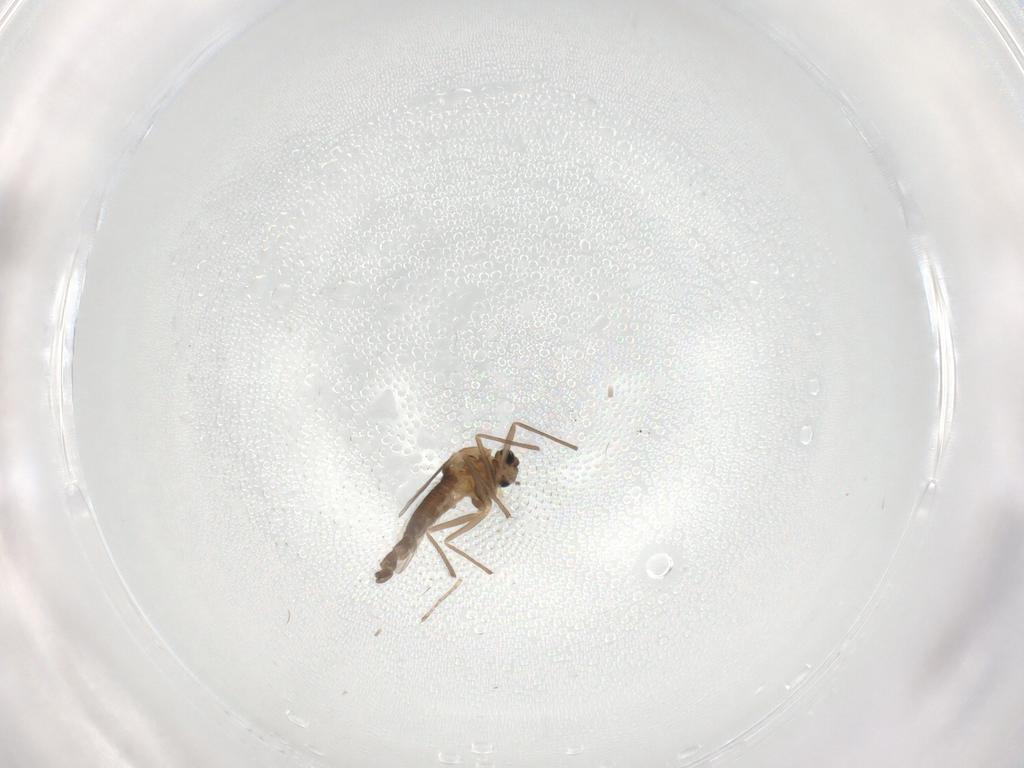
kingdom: Animalia
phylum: Arthropoda
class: Insecta
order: Diptera
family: Chironomidae
